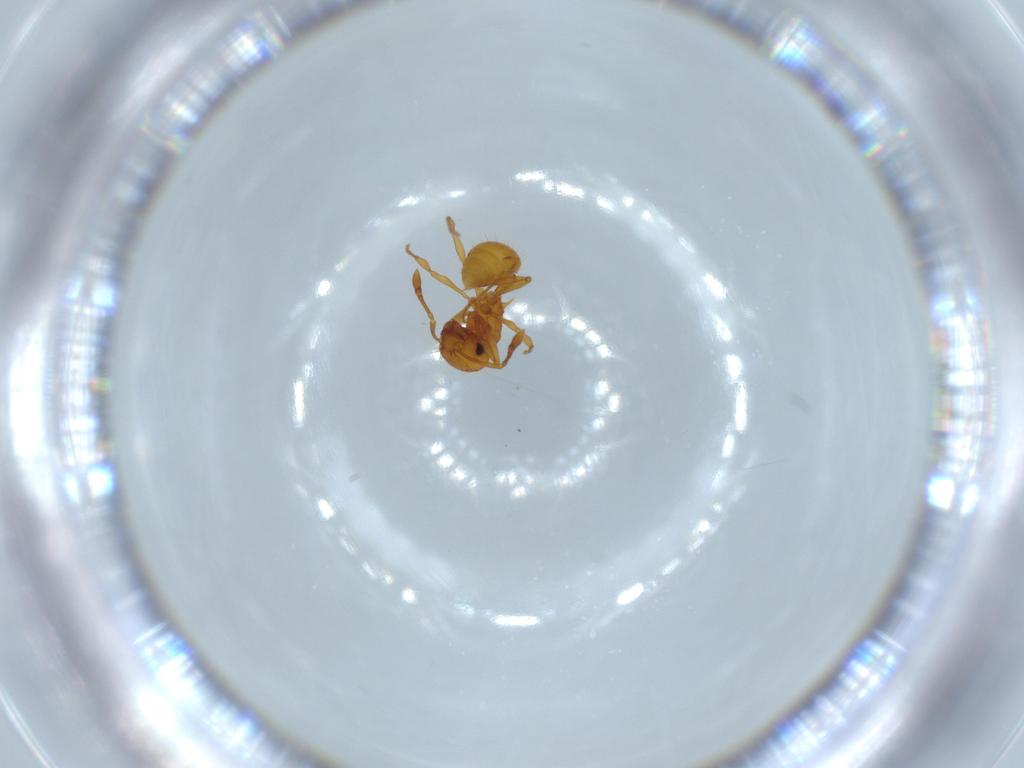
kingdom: Animalia
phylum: Arthropoda
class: Insecta
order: Hymenoptera
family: Formicidae
